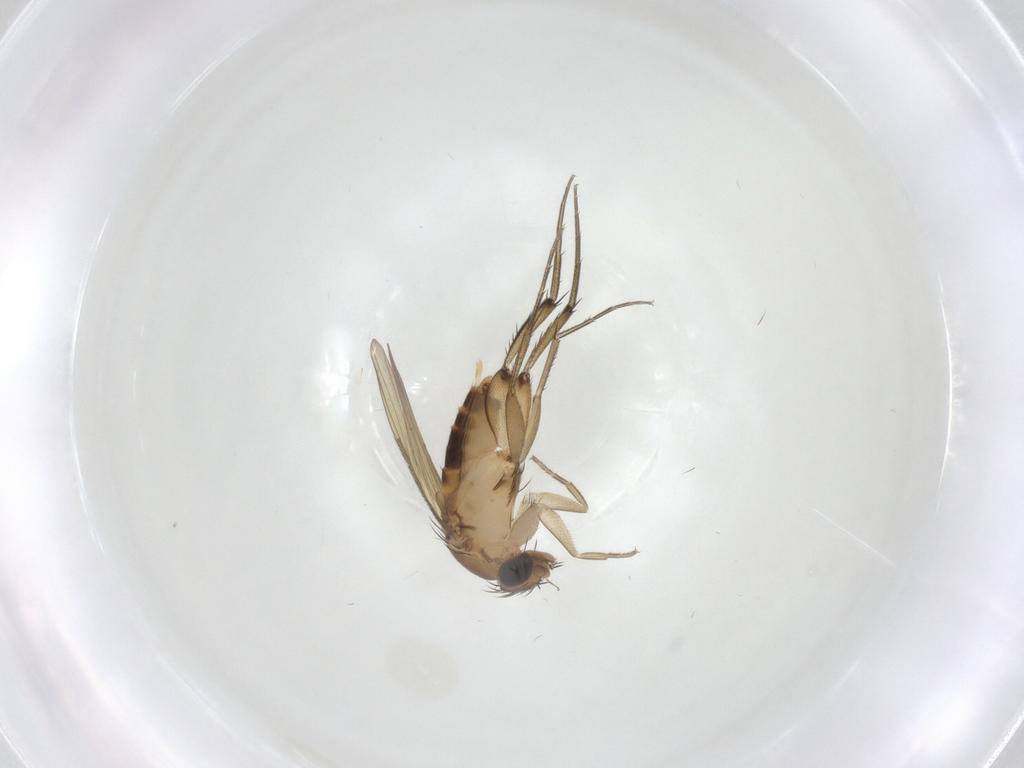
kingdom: Animalia
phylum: Arthropoda
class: Insecta
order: Diptera
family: Phoridae
